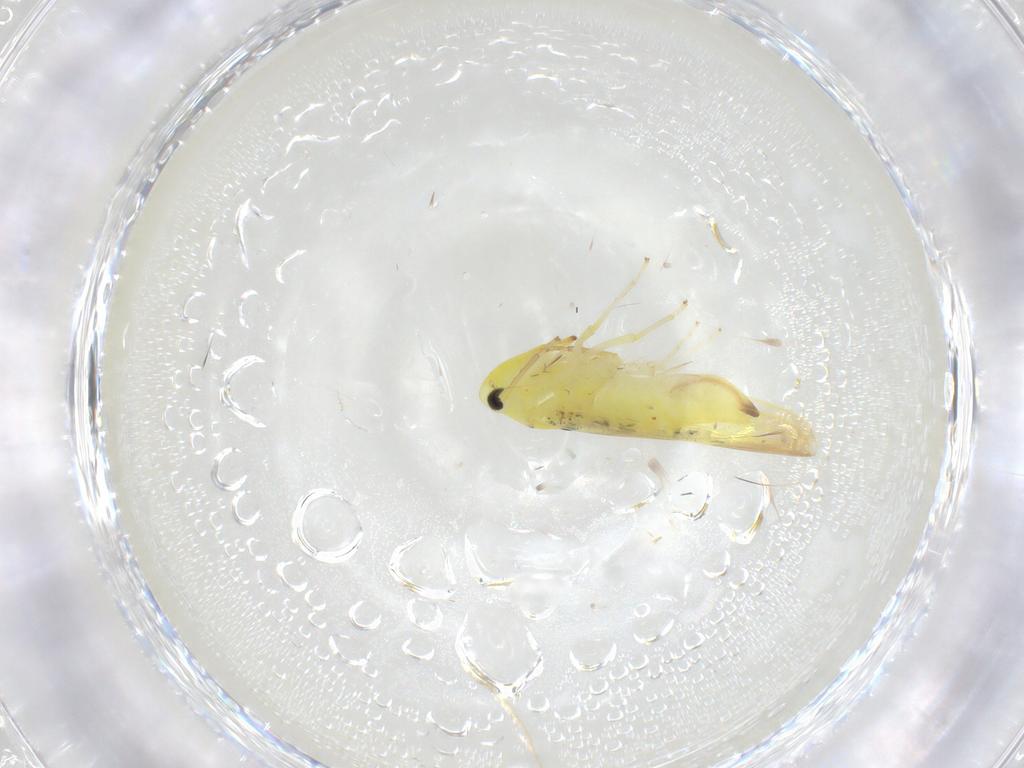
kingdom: Animalia
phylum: Arthropoda
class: Insecta
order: Hemiptera
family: Cicadellidae
